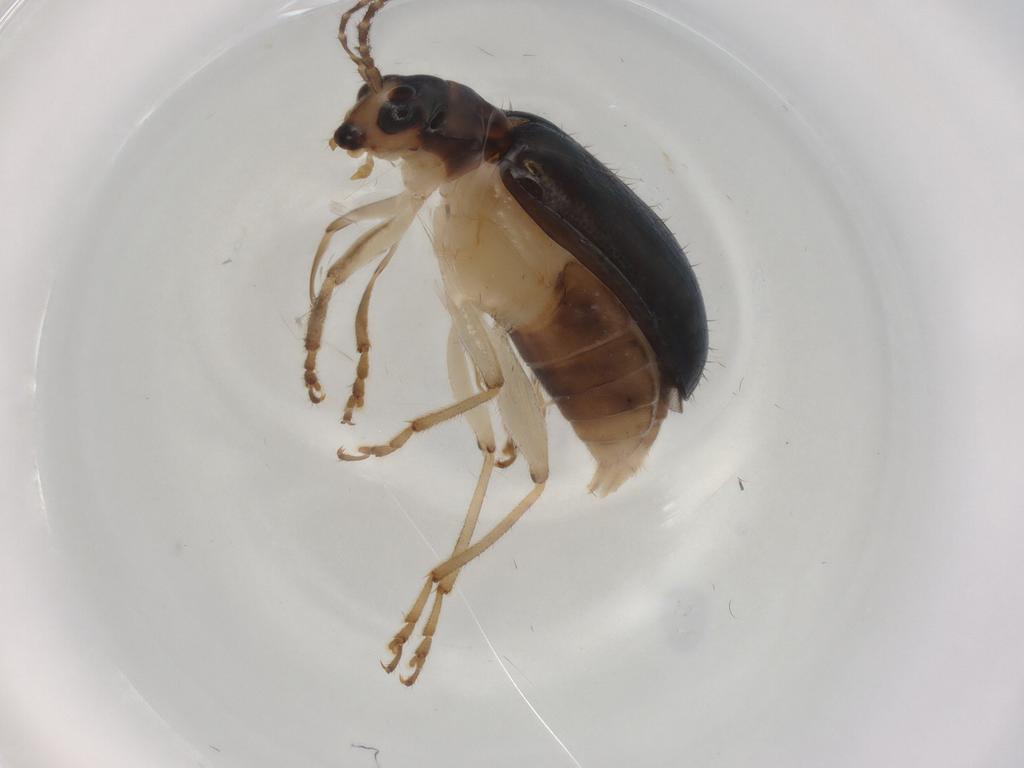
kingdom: Animalia
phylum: Arthropoda
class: Insecta
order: Coleoptera
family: Chrysomelidae
